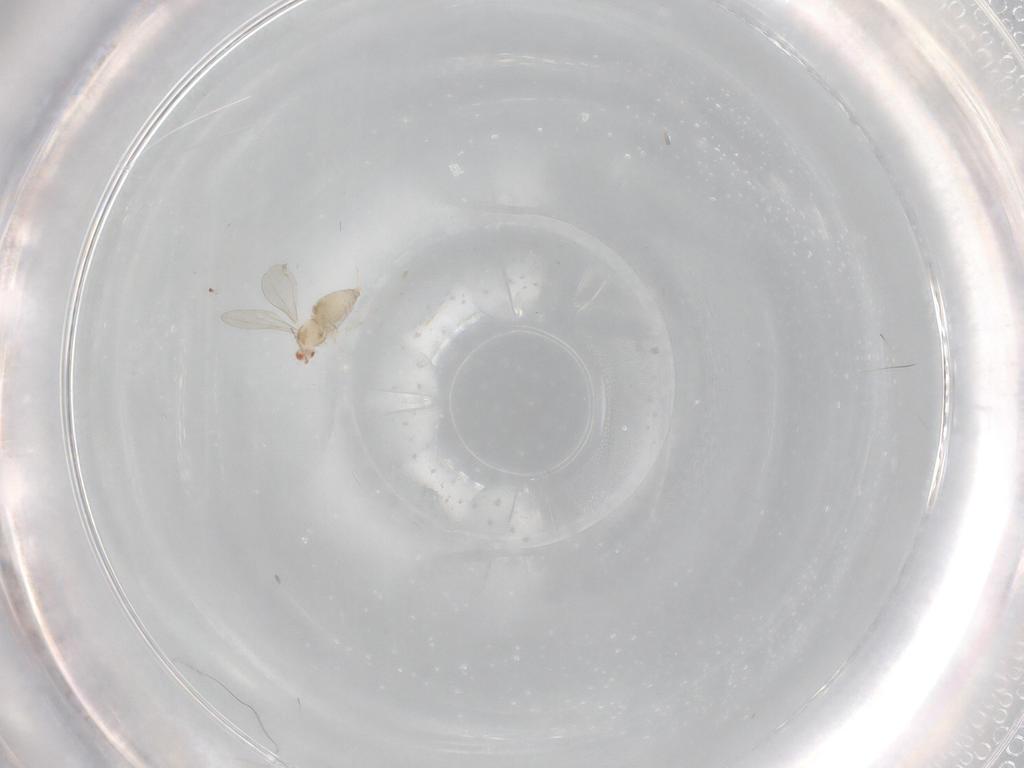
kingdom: Animalia
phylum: Arthropoda
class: Insecta
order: Diptera
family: Cecidomyiidae
